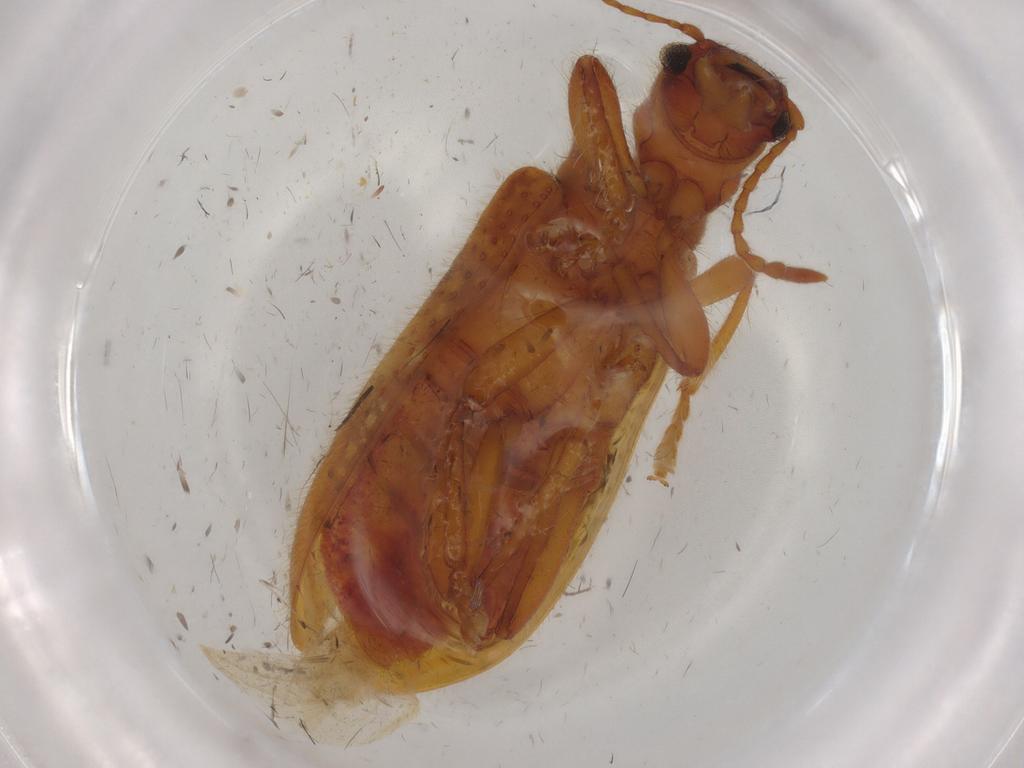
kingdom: Animalia
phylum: Arthropoda
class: Insecta
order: Coleoptera
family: Cleridae
